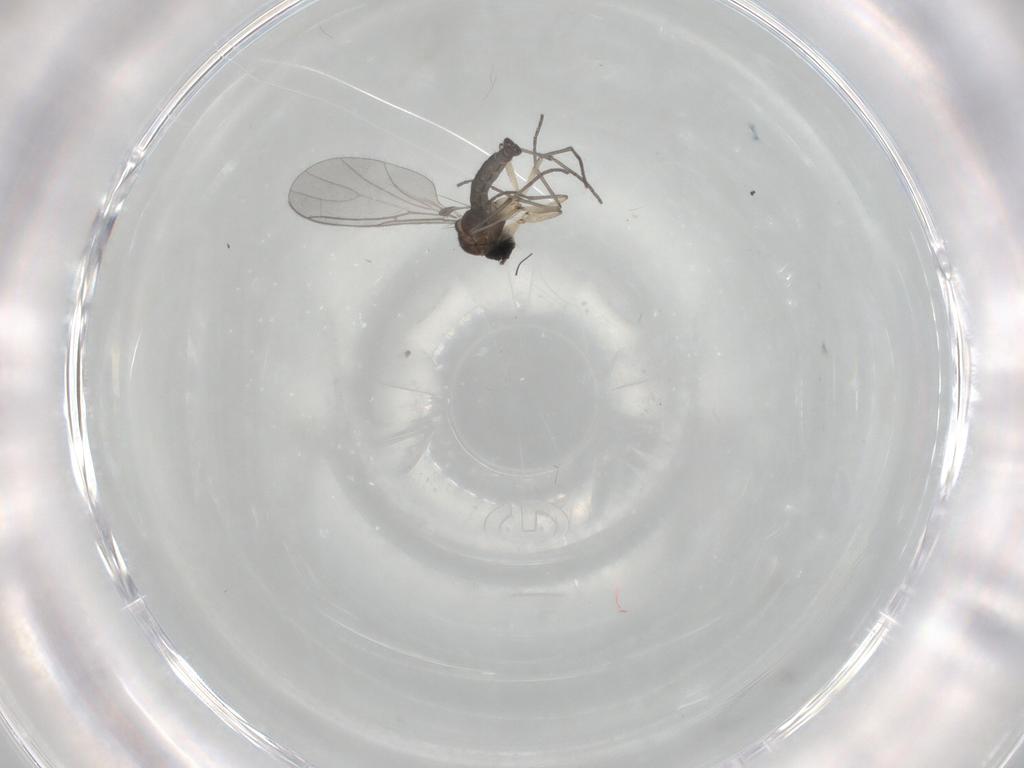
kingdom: Animalia
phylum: Arthropoda
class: Insecta
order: Diptera
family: Sciaridae
